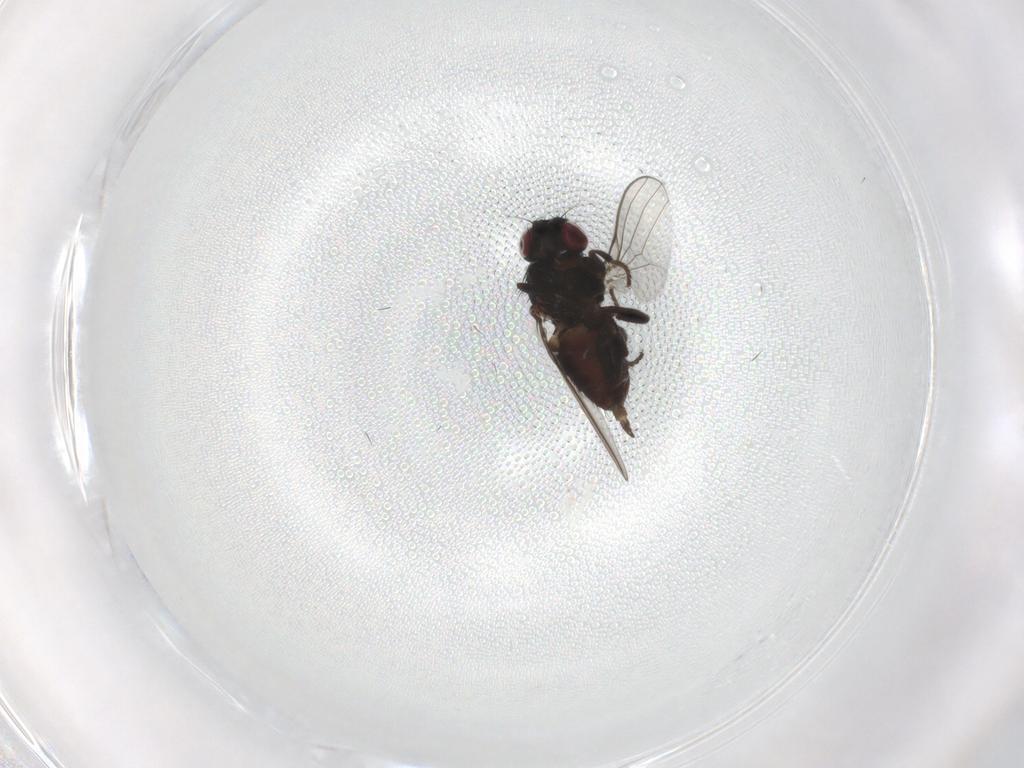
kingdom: Animalia
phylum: Arthropoda
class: Insecta
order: Diptera
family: Milichiidae
